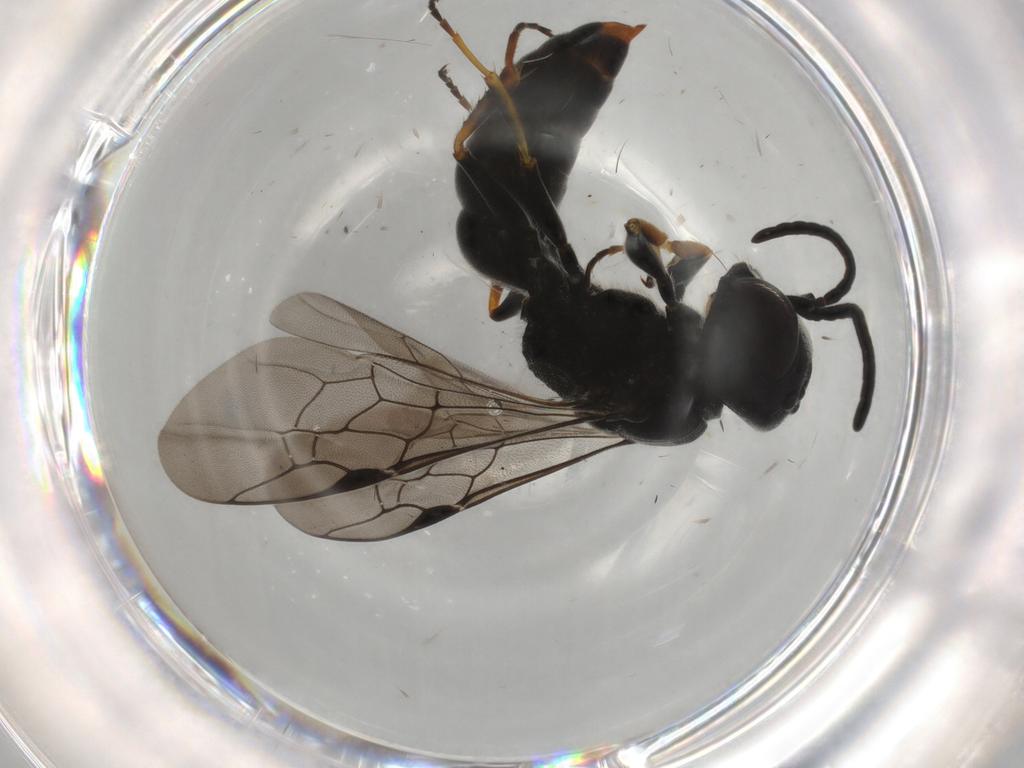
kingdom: Animalia
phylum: Arthropoda
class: Insecta
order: Hymenoptera
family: Crabronidae
